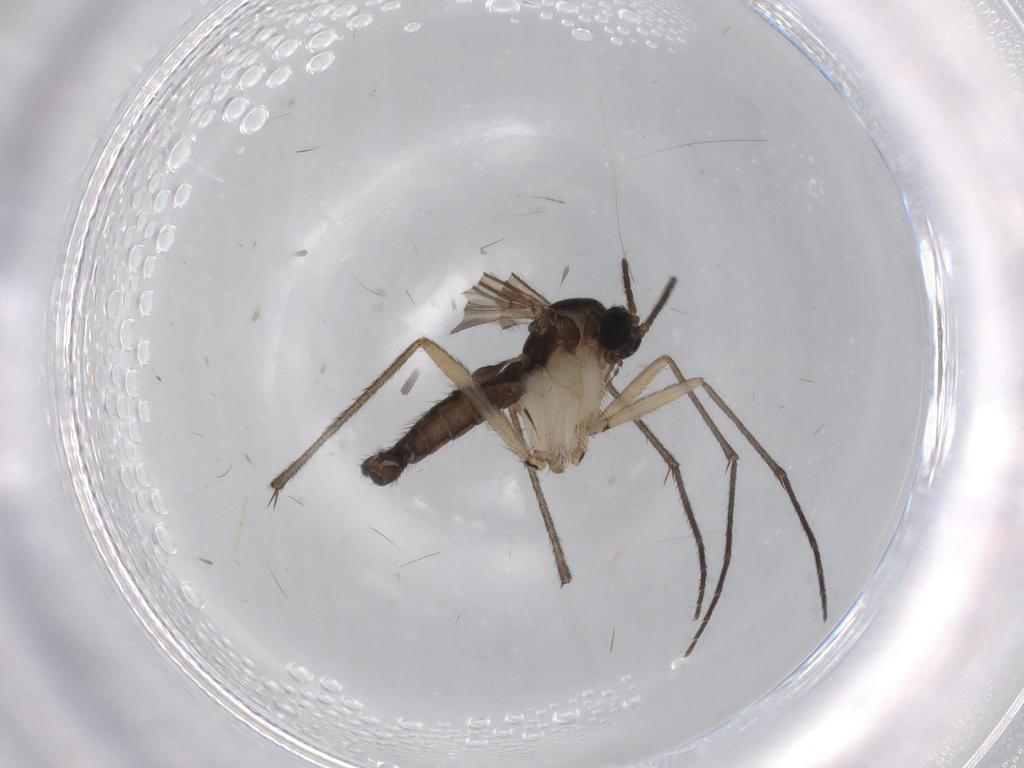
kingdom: Animalia
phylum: Arthropoda
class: Insecta
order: Diptera
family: Sciaridae
